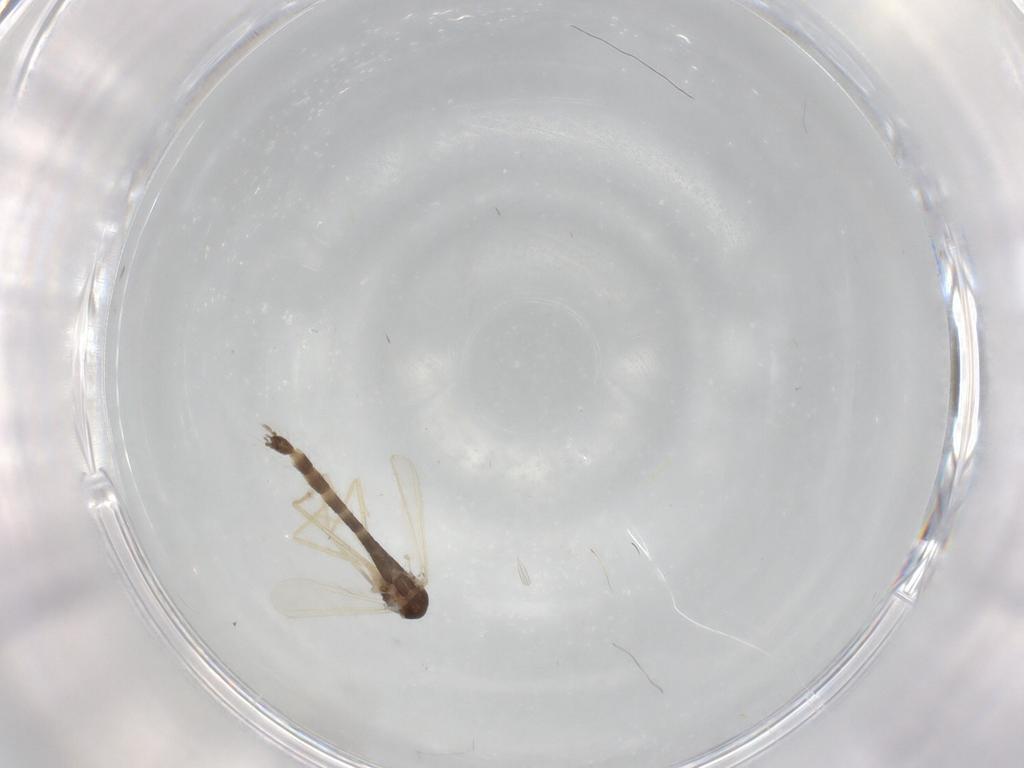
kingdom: Animalia
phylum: Arthropoda
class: Insecta
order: Diptera
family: Chironomidae
